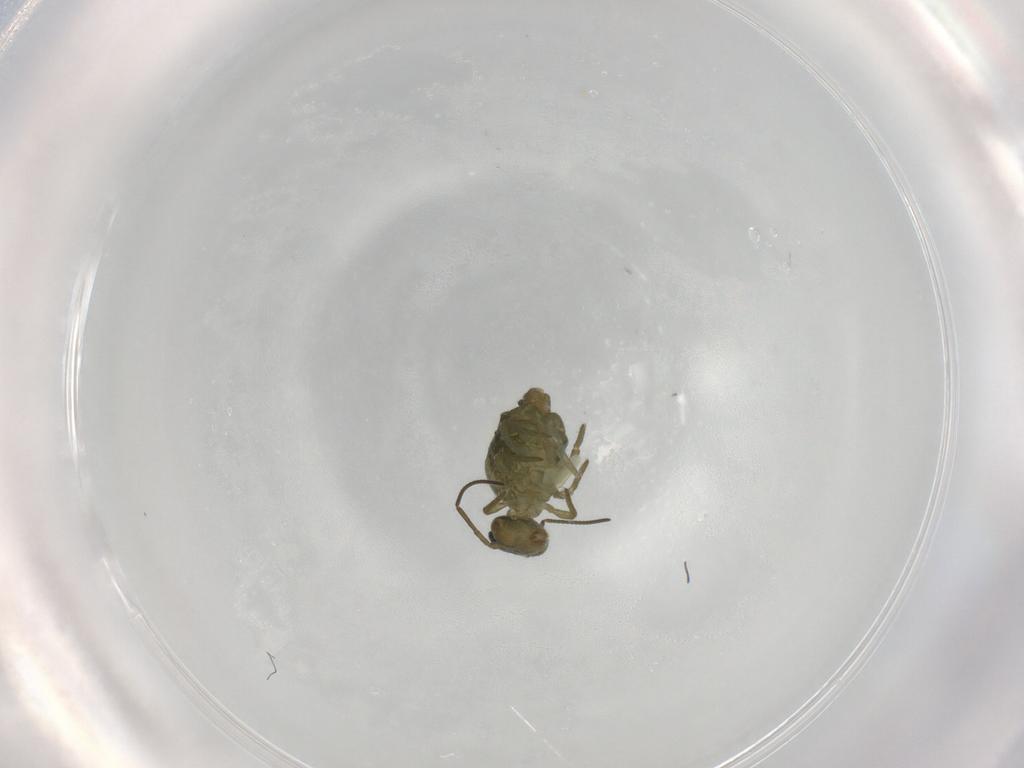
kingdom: Animalia
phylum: Arthropoda
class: Collembola
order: Symphypleona
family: Sminthuridae
